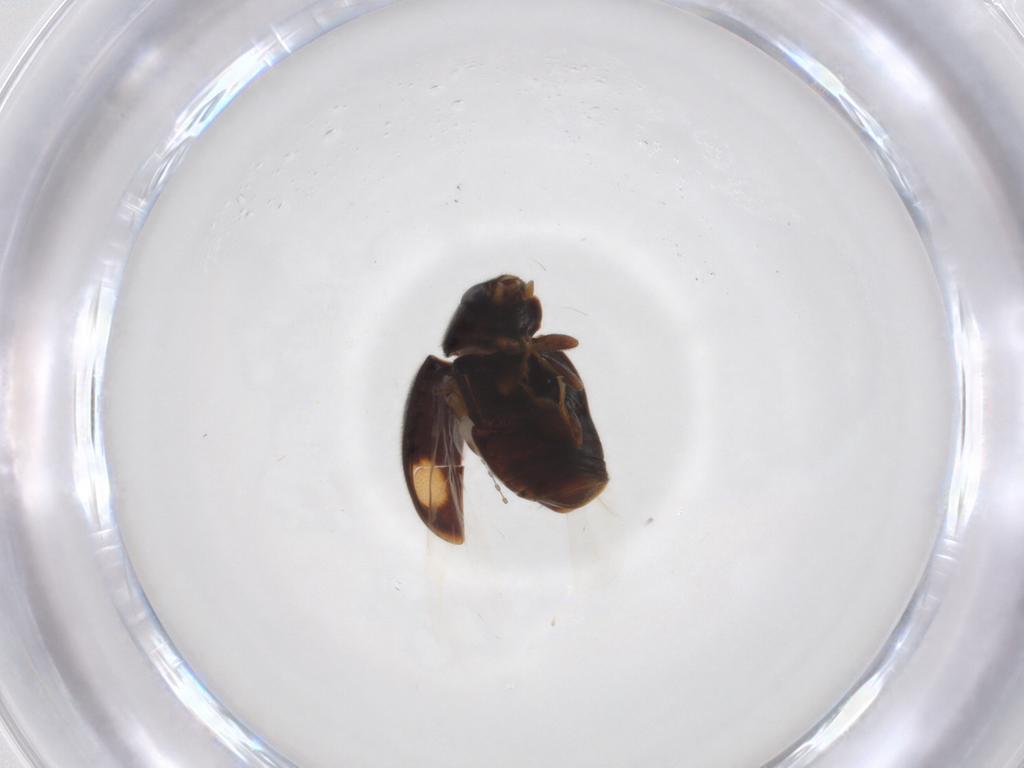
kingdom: Animalia
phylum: Arthropoda
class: Insecta
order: Coleoptera
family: Coccinellidae
